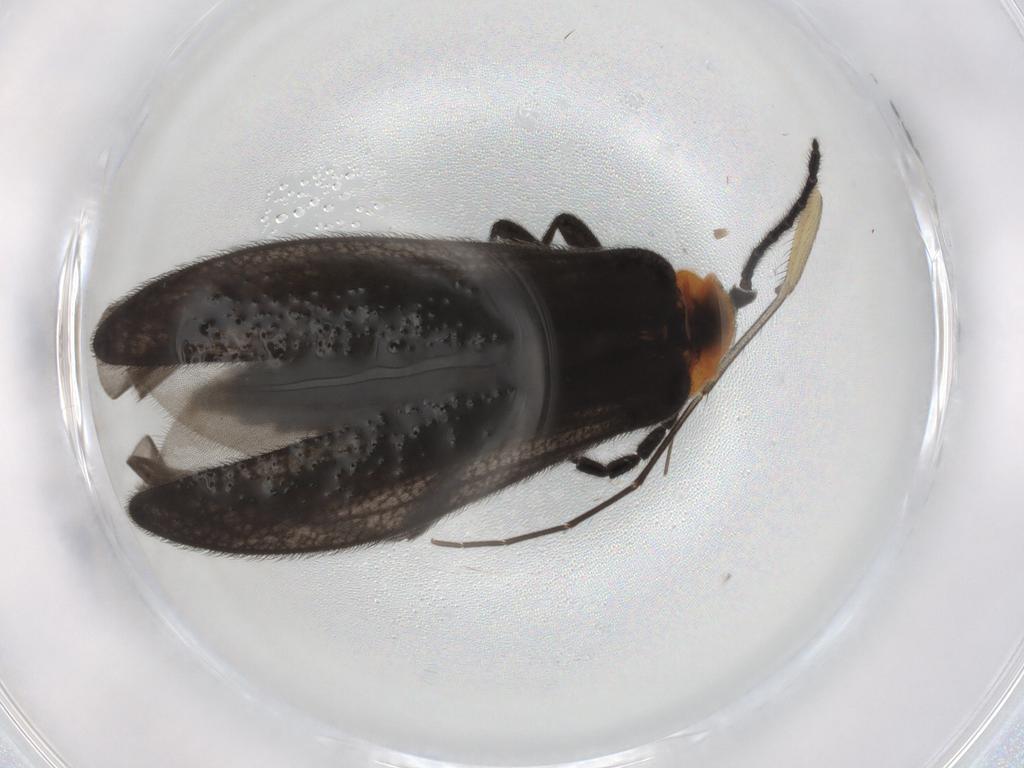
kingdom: Animalia
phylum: Arthropoda
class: Insecta
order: Coleoptera
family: Lycidae
